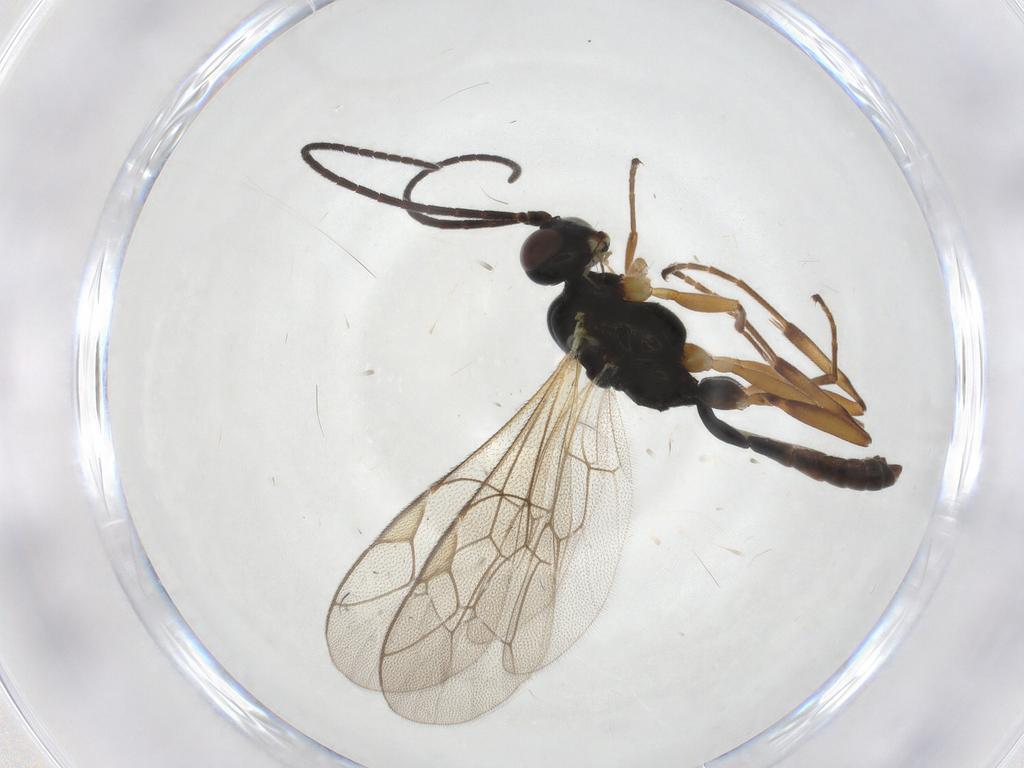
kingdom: Animalia
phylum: Arthropoda
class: Insecta
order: Hymenoptera
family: Ichneumonidae
